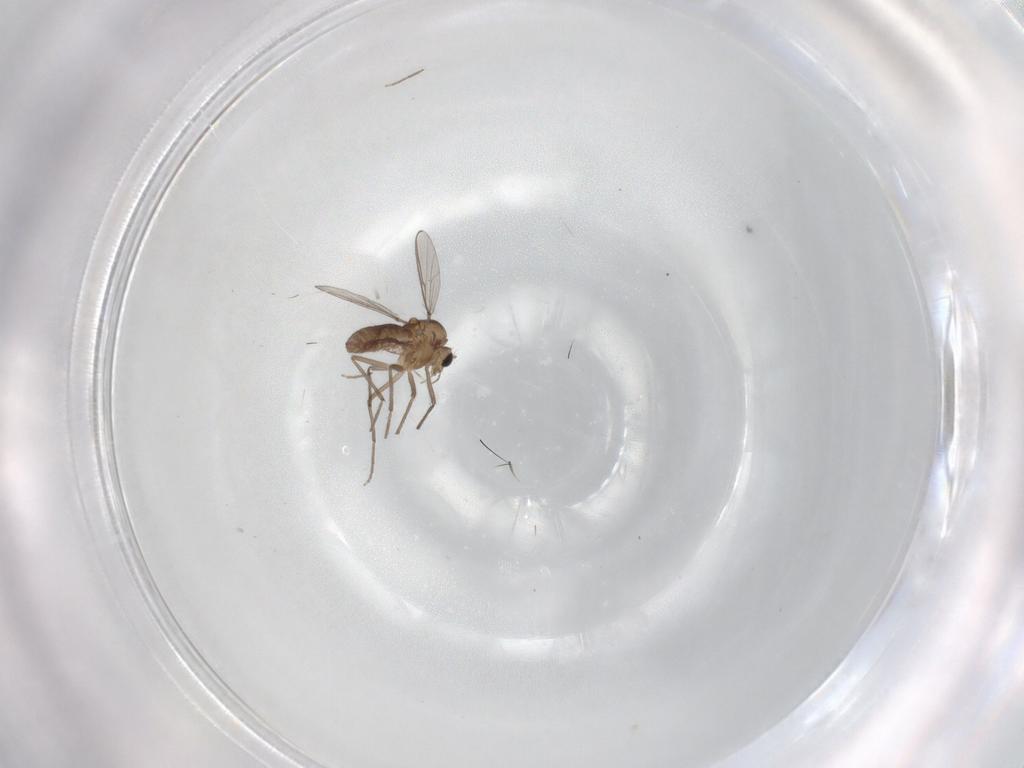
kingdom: Animalia
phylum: Arthropoda
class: Insecta
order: Diptera
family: Chironomidae
